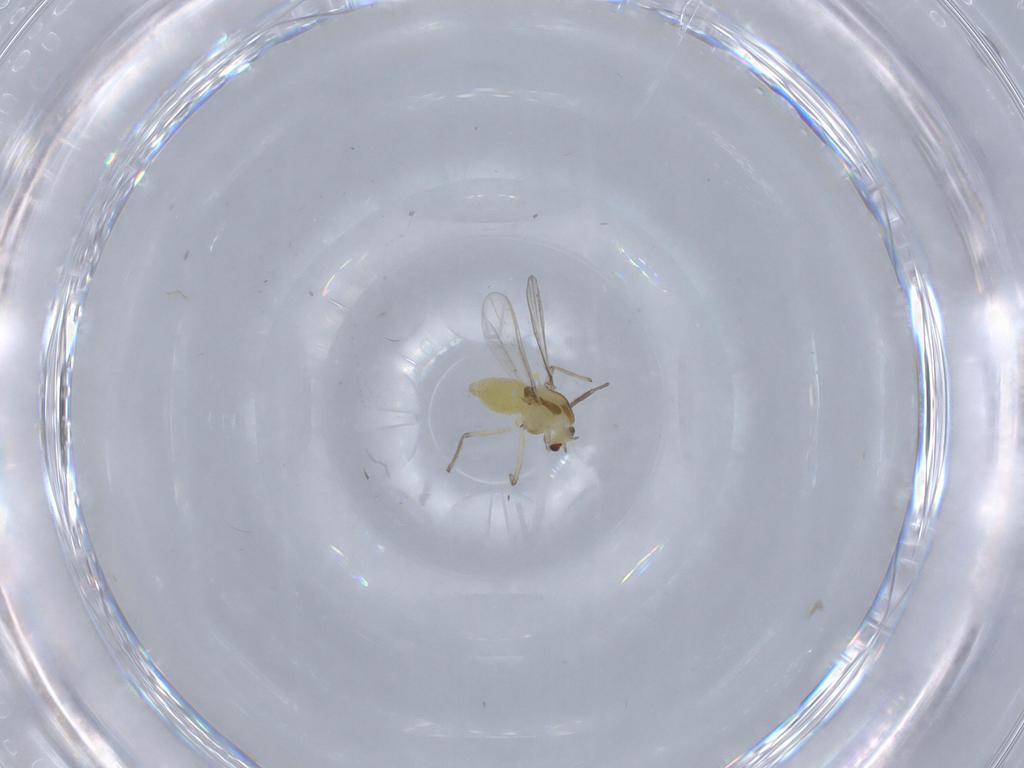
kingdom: Animalia
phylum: Arthropoda
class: Insecta
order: Diptera
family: Chironomidae
